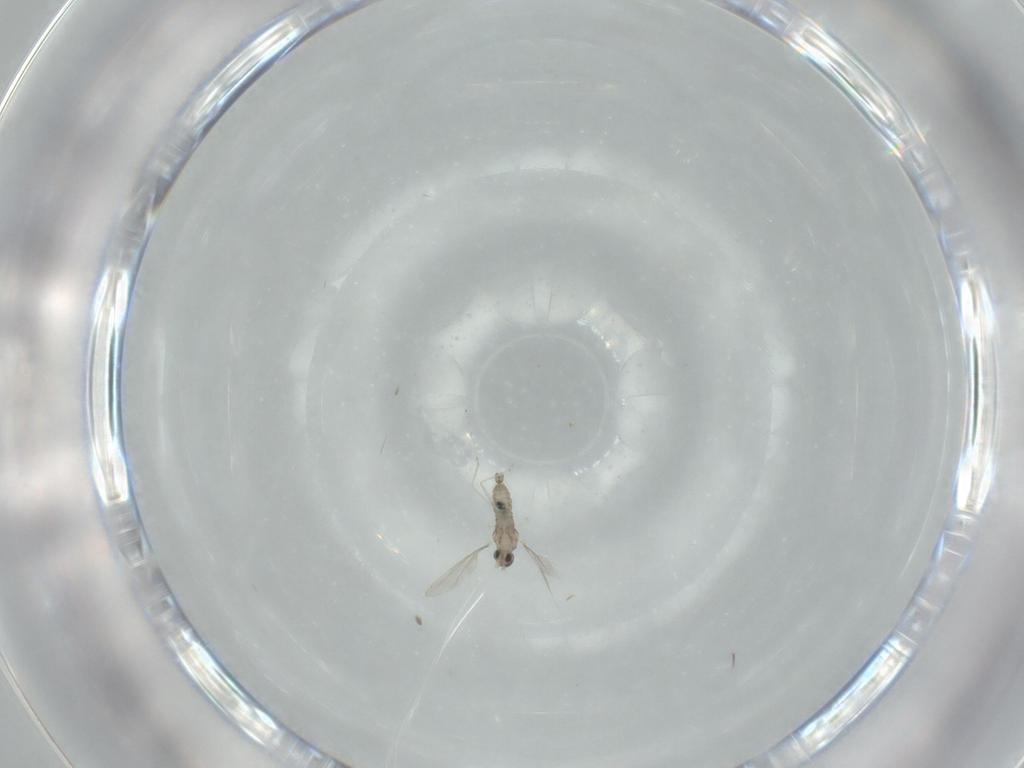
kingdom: Animalia
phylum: Arthropoda
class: Insecta
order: Diptera
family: Cecidomyiidae
